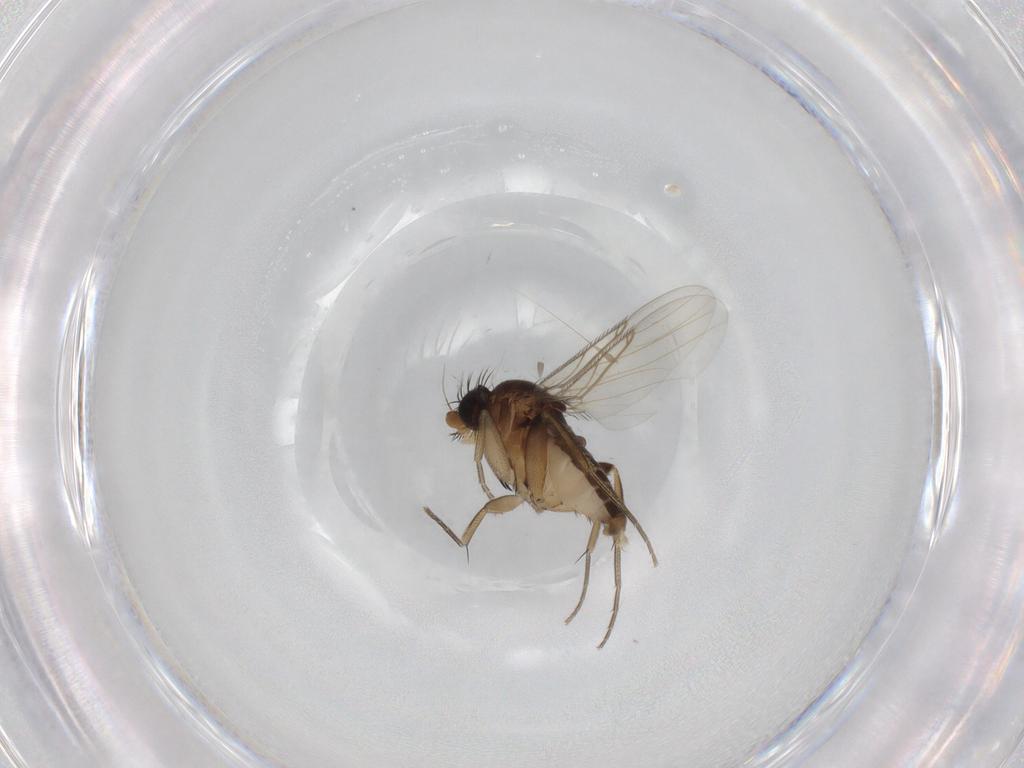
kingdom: Animalia
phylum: Arthropoda
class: Insecta
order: Diptera
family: Phoridae
